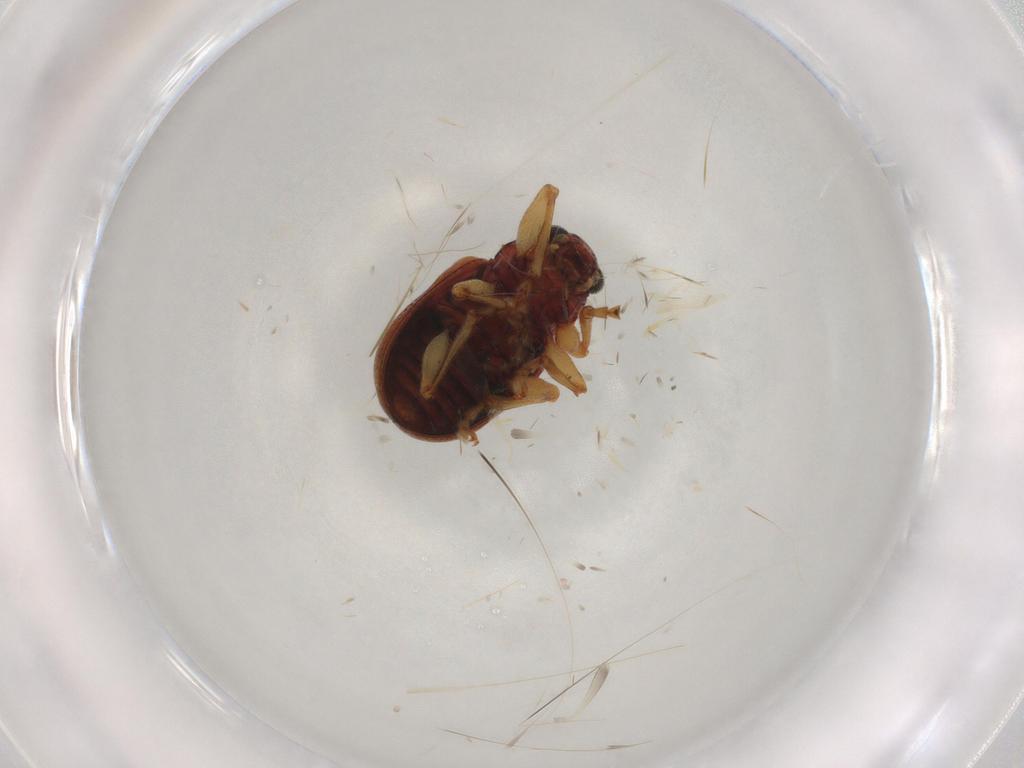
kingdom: Animalia
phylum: Arthropoda
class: Insecta
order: Coleoptera
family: Chrysomelidae
